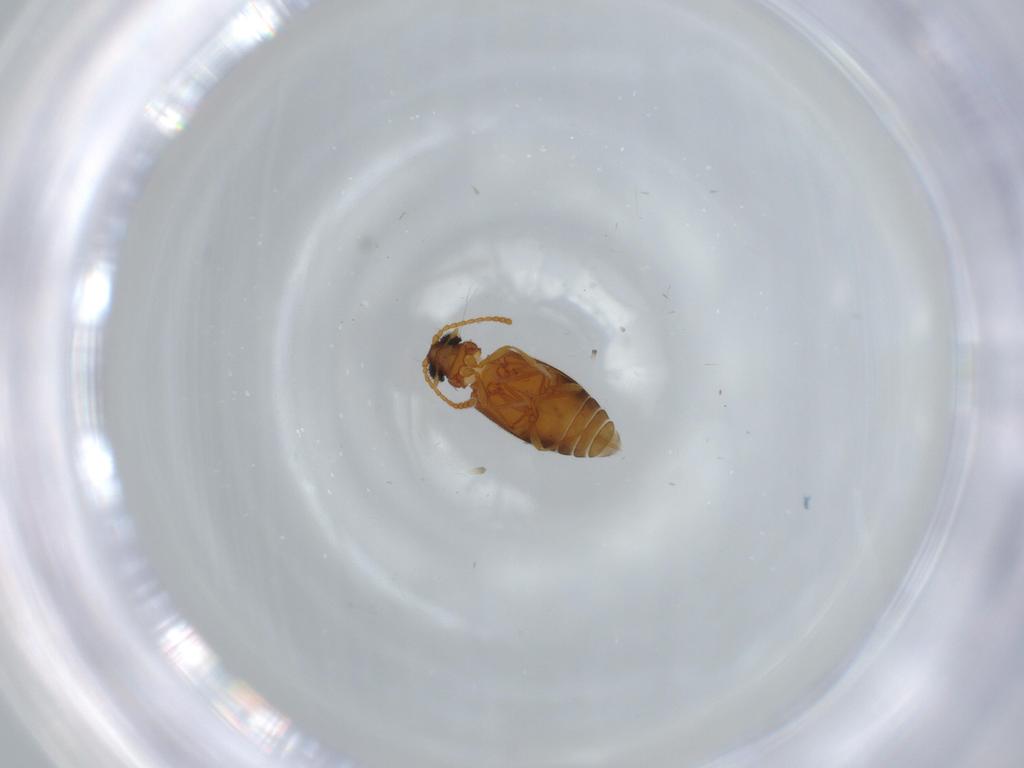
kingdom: Animalia
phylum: Arthropoda
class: Insecta
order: Coleoptera
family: Aderidae
